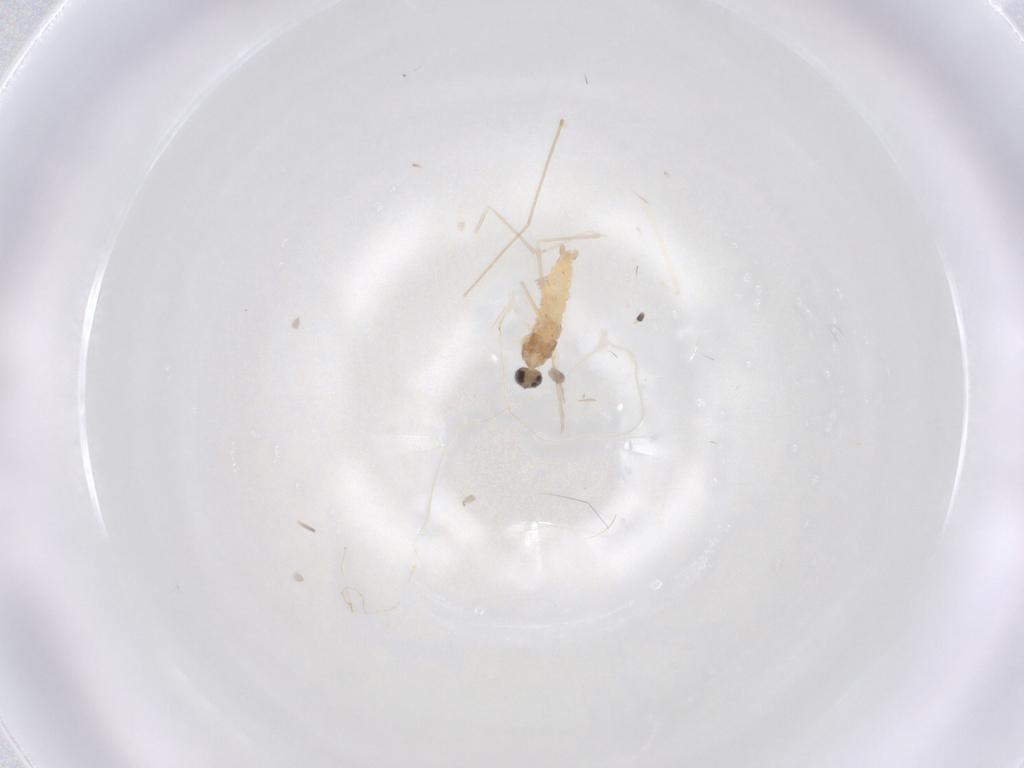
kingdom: Animalia
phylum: Arthropoda
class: Insecta
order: Diptera
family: Cecidomyiidae
